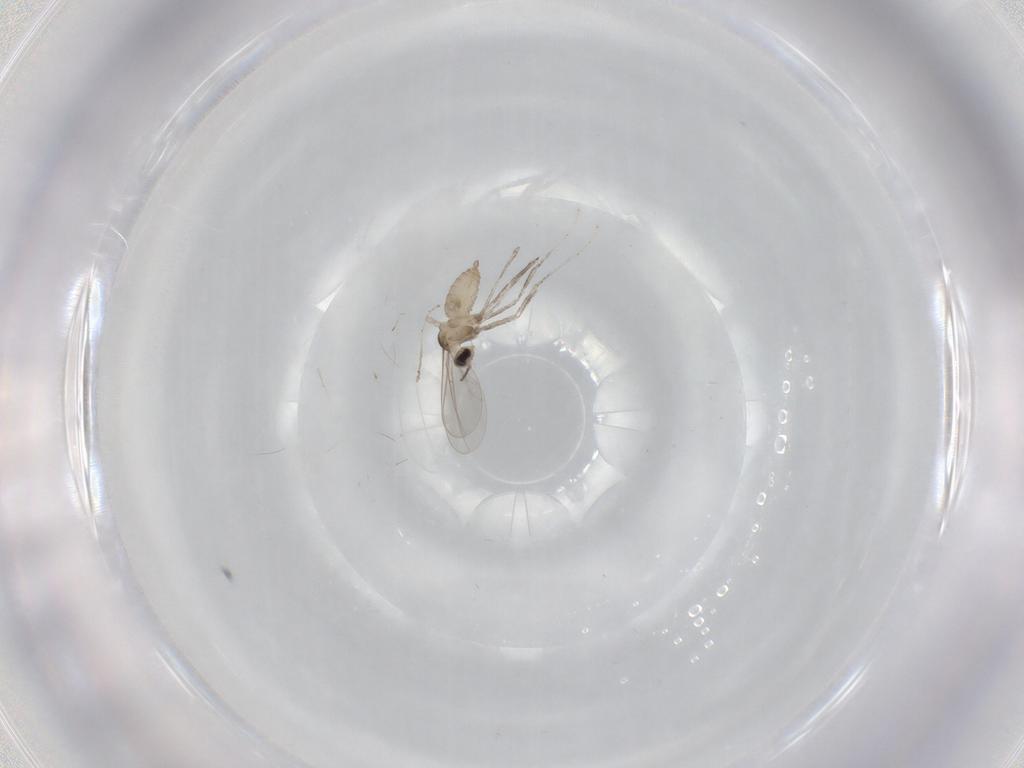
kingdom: Animalia
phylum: Arthropoda
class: Insecta
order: Diptera
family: Cecidomyiidae
